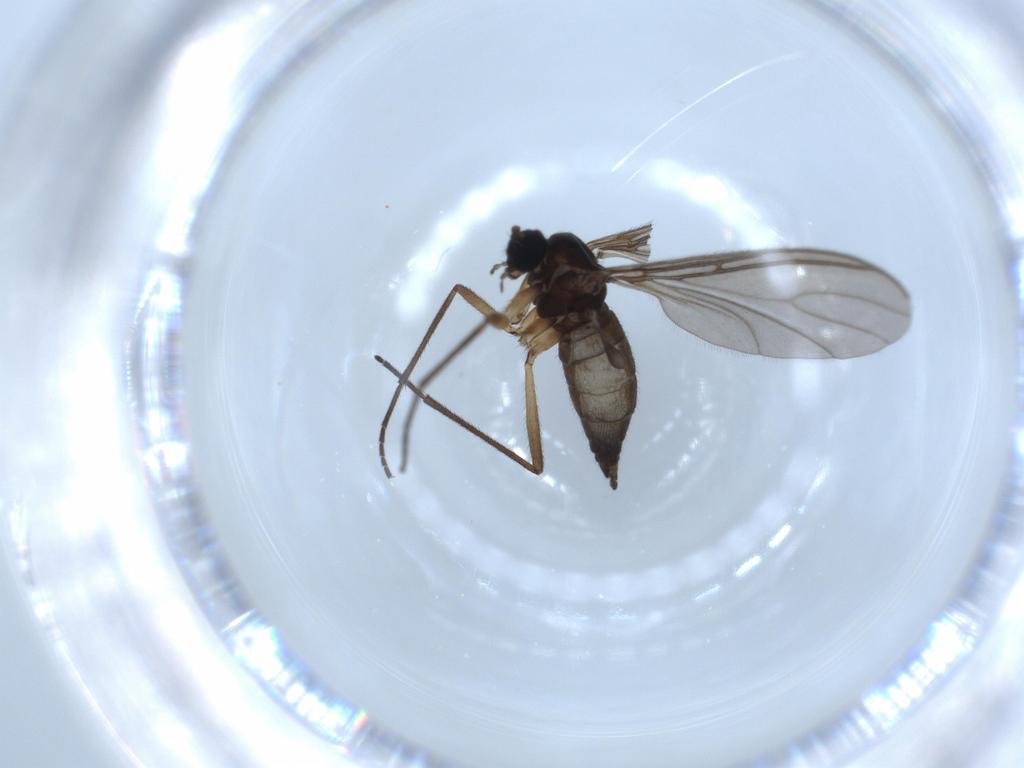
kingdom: Animalia
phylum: Arthropoda
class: Insecta
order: Diptera
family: Sciaridae
